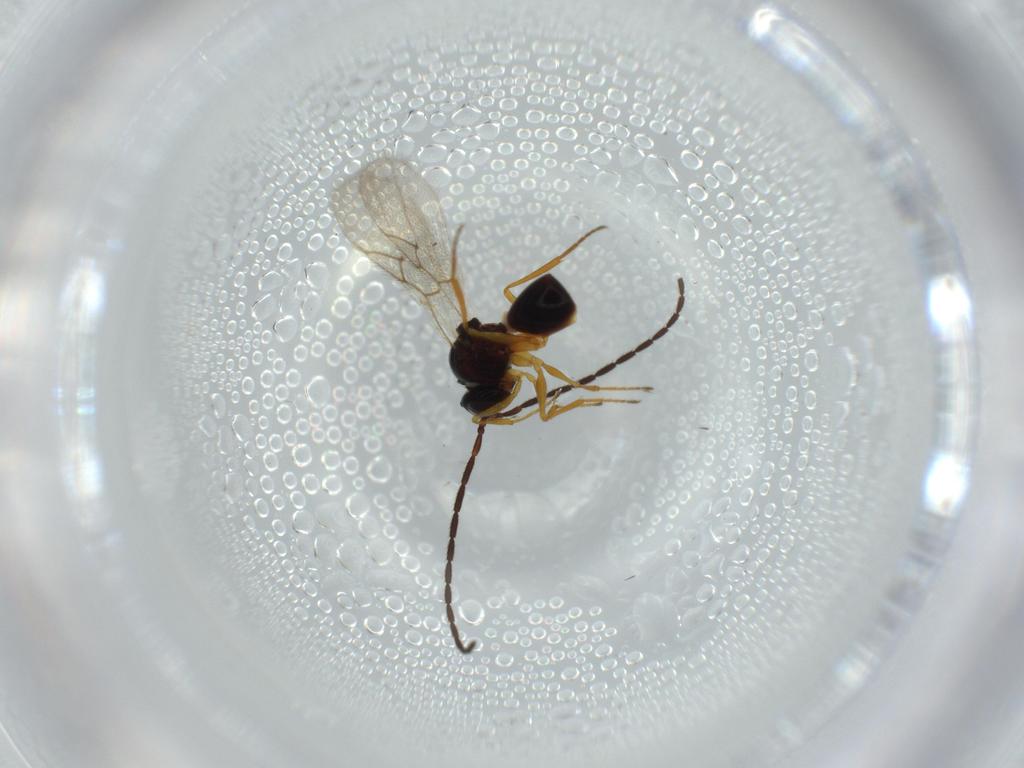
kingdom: Animalia
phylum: Arthropoda
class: Insecta
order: Hymenoptera
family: Figitidae
